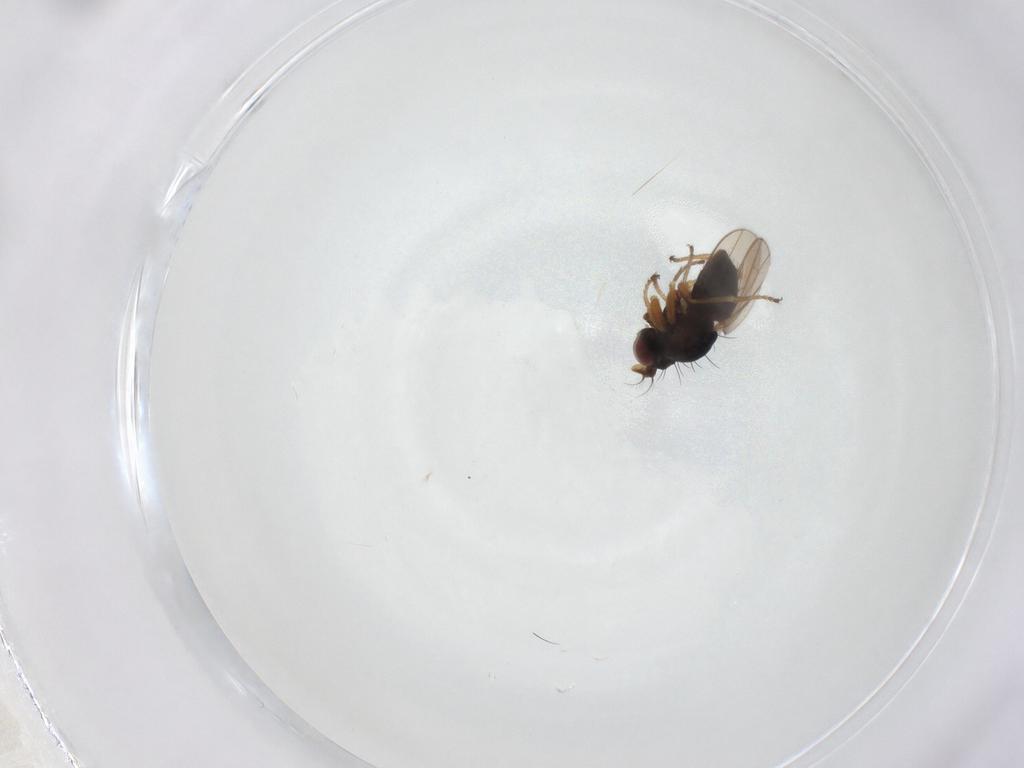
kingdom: Animalia
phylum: Arthropoda
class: Insecta
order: Diptera
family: Ephydridae
